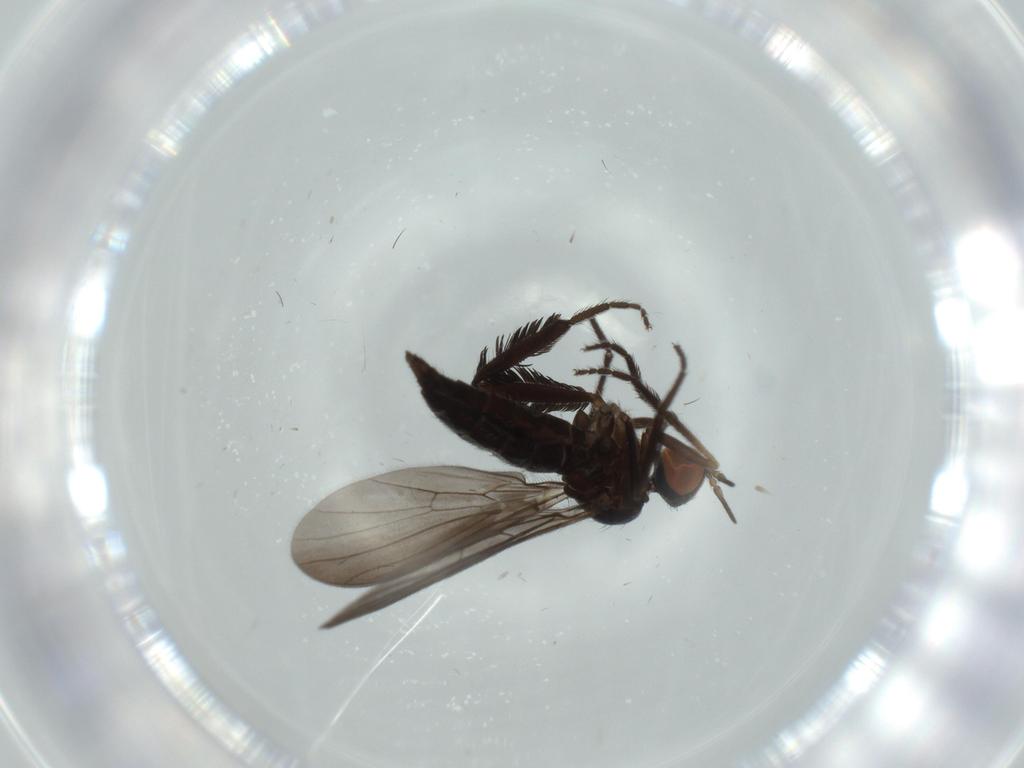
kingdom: Animalia
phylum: Arthropoda
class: Insecta
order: Diptera
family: Empididae
